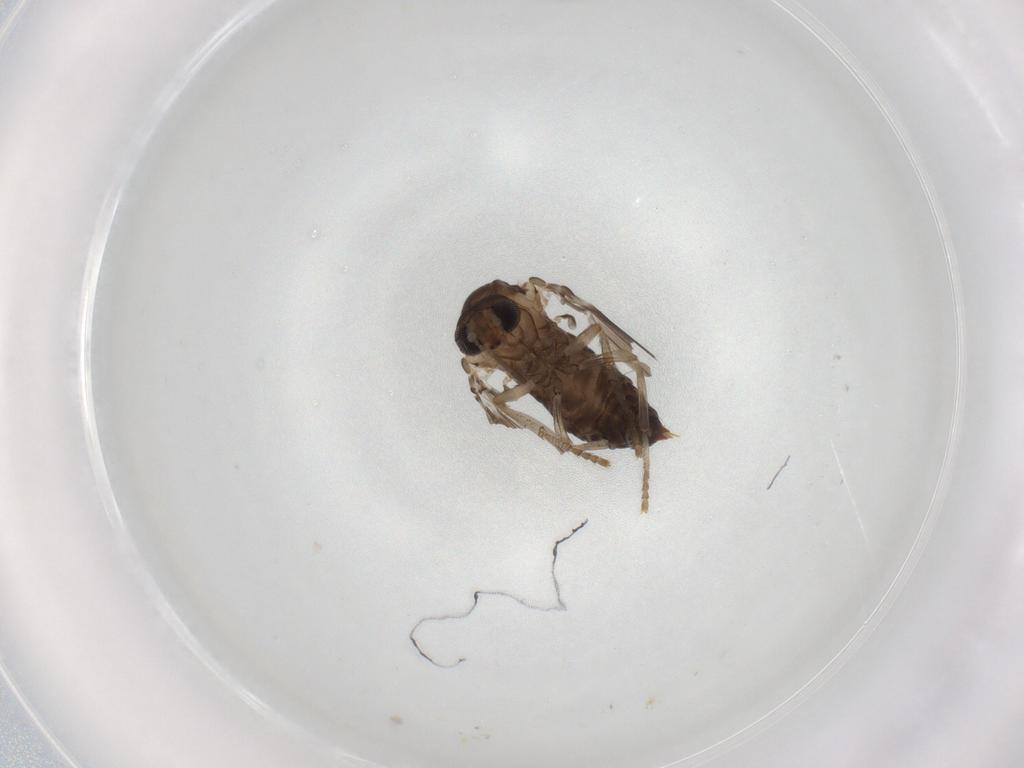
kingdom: Animalia
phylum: Arthropoda
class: Insecta
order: Diptera
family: Psychodidae
